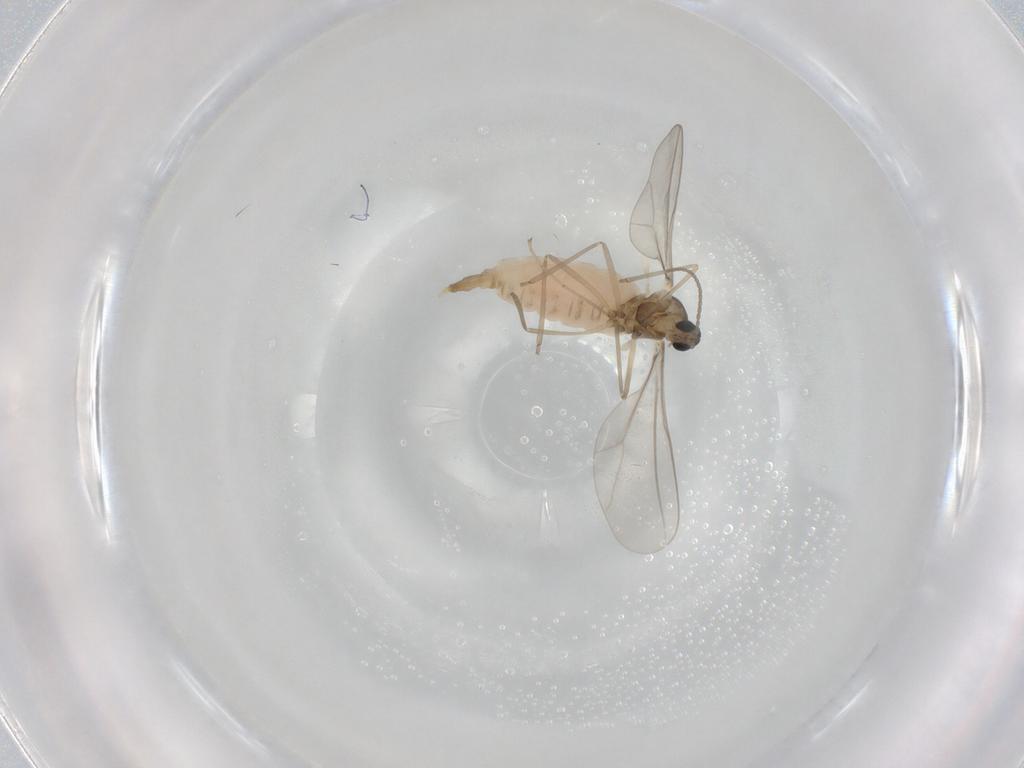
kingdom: Animalia
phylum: Arthropoda
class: Insecta
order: Diptera
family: Cecidomyiidae
